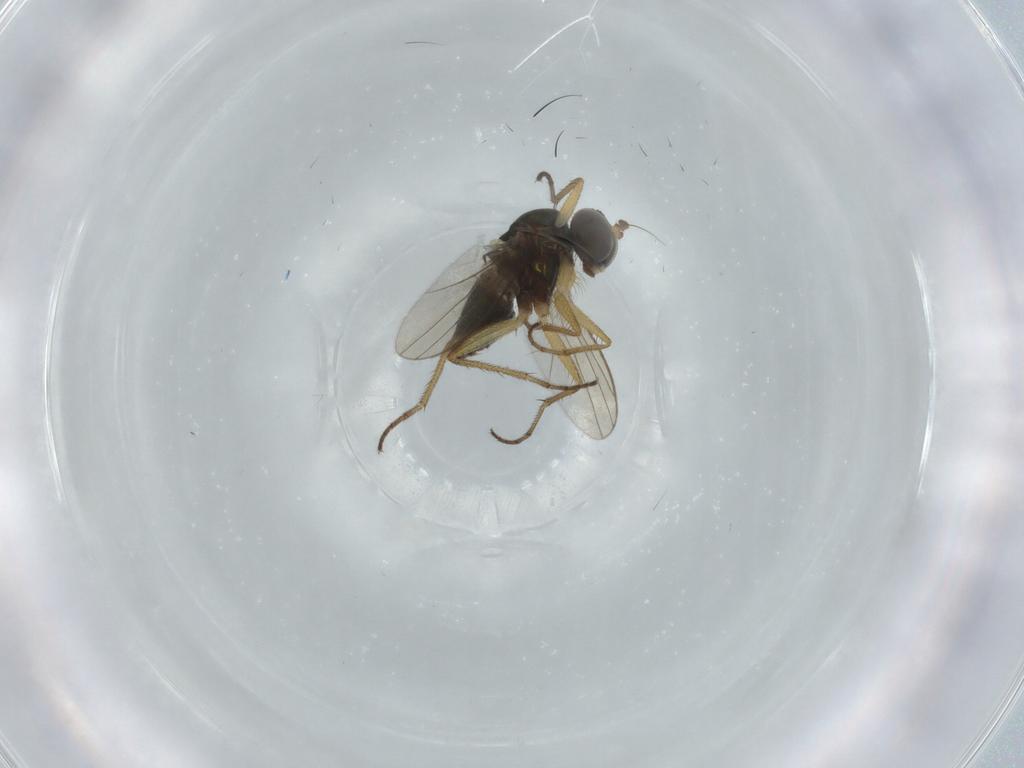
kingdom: Animalia
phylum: Arthropoda
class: Insecta
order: Diptera
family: Dolichopodidae
